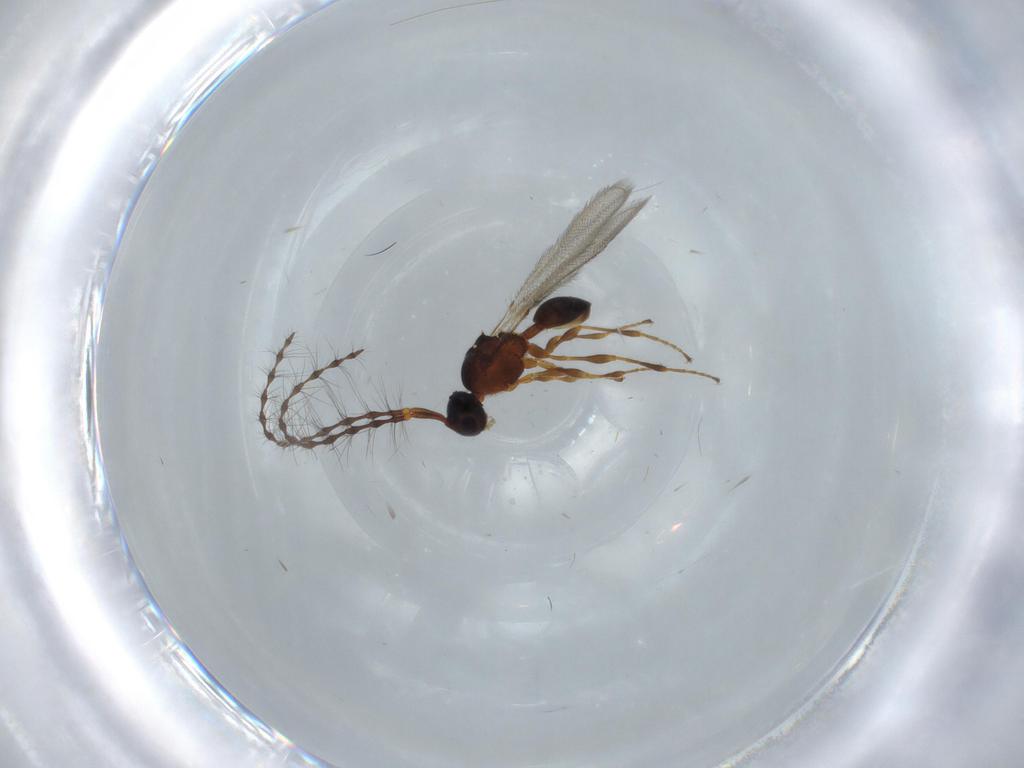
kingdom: Animalia
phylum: Arthropoda
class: Insecta
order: Hymenoptera
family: Diapriidae
